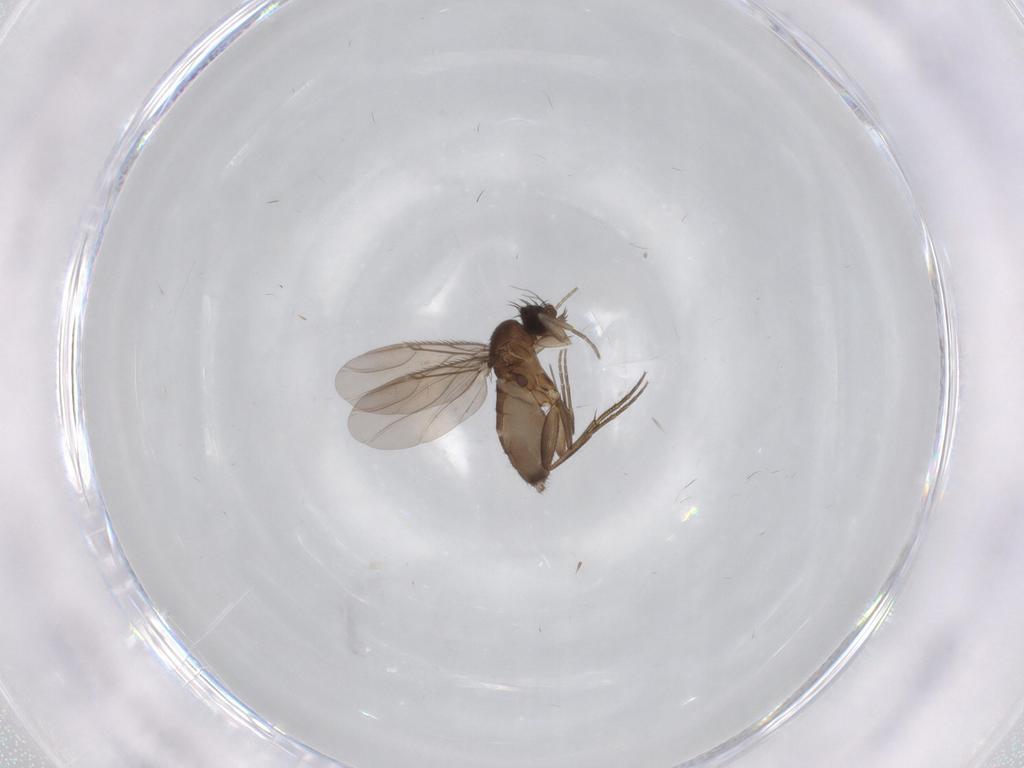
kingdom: Animalia
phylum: Arthropoda
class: Insecta
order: Diptera
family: Phoridae
